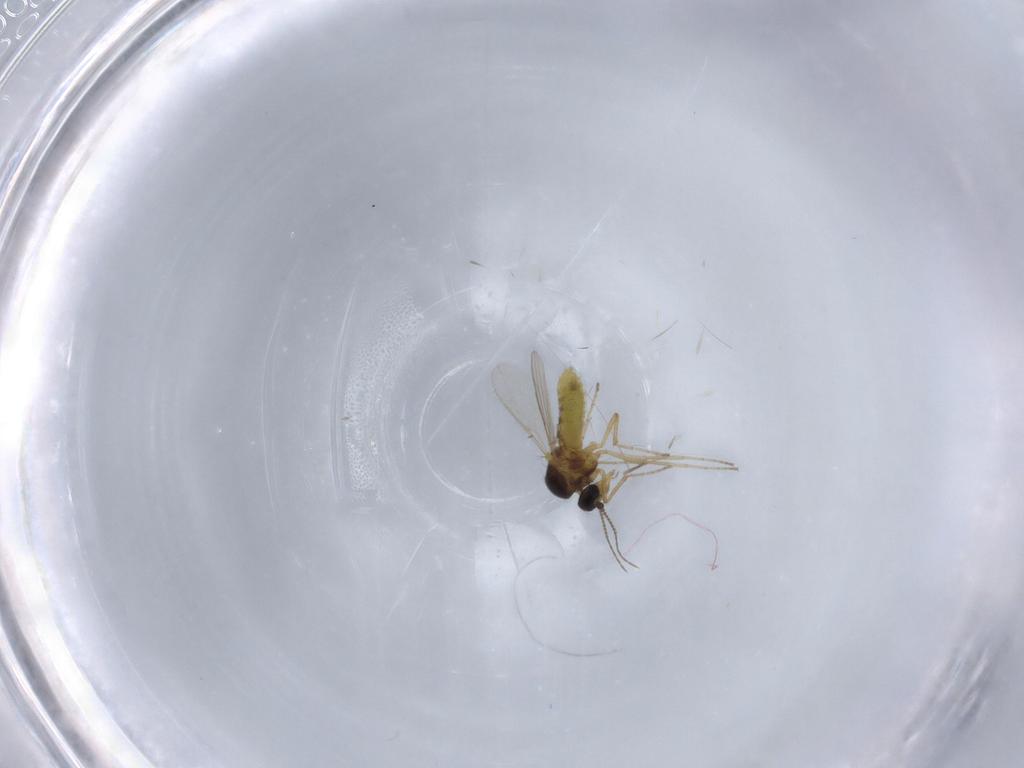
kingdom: Animalia
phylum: Arthropoda
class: Insecta
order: Diptera
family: Ceratopogonidae
